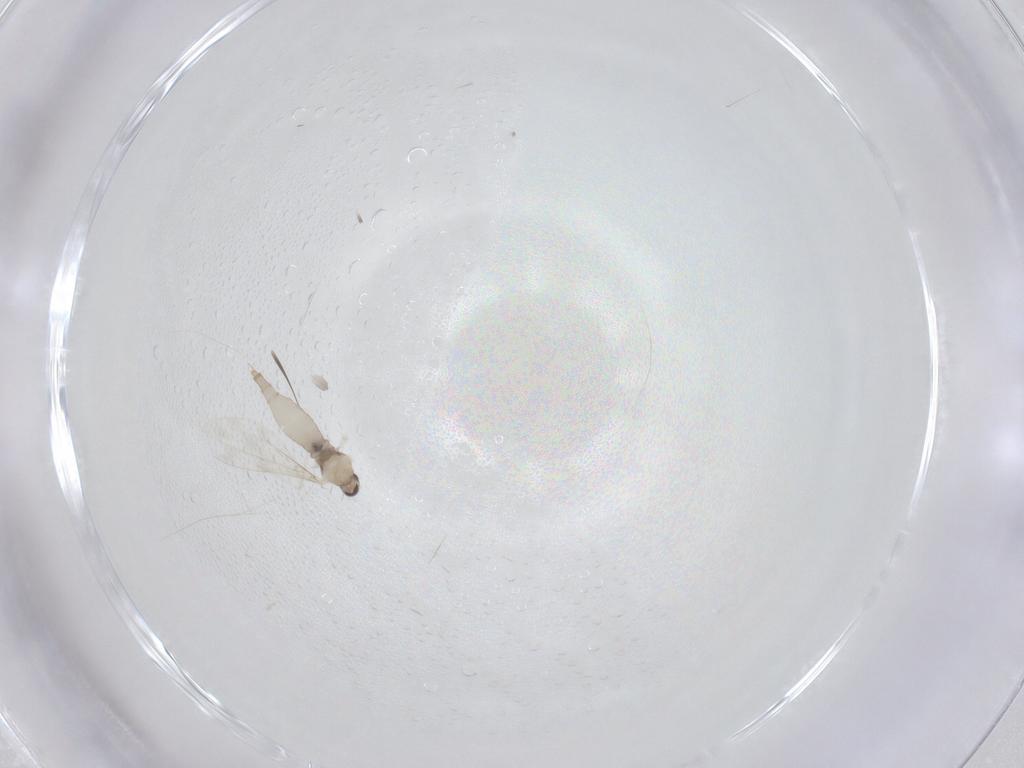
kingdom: Animalia
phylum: Arthropoda
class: Insecta
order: Diptera
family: Cecidomyiidae
